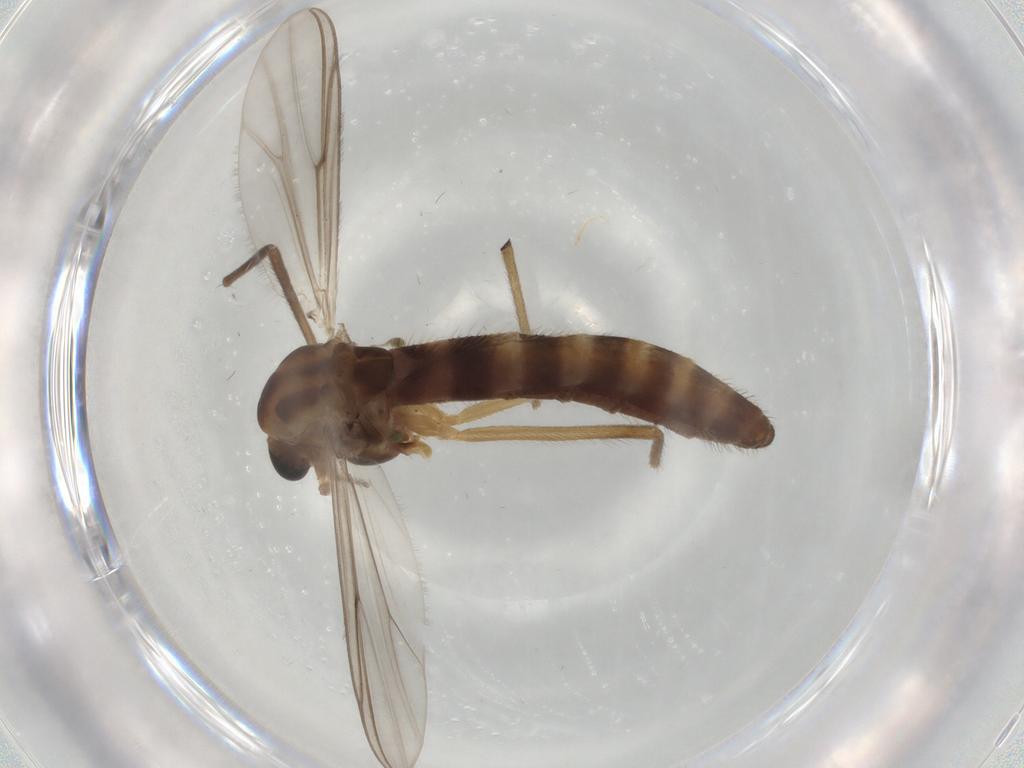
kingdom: Animalia
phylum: Arthropoda
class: Insecta
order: Diptera
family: Chironomidae
